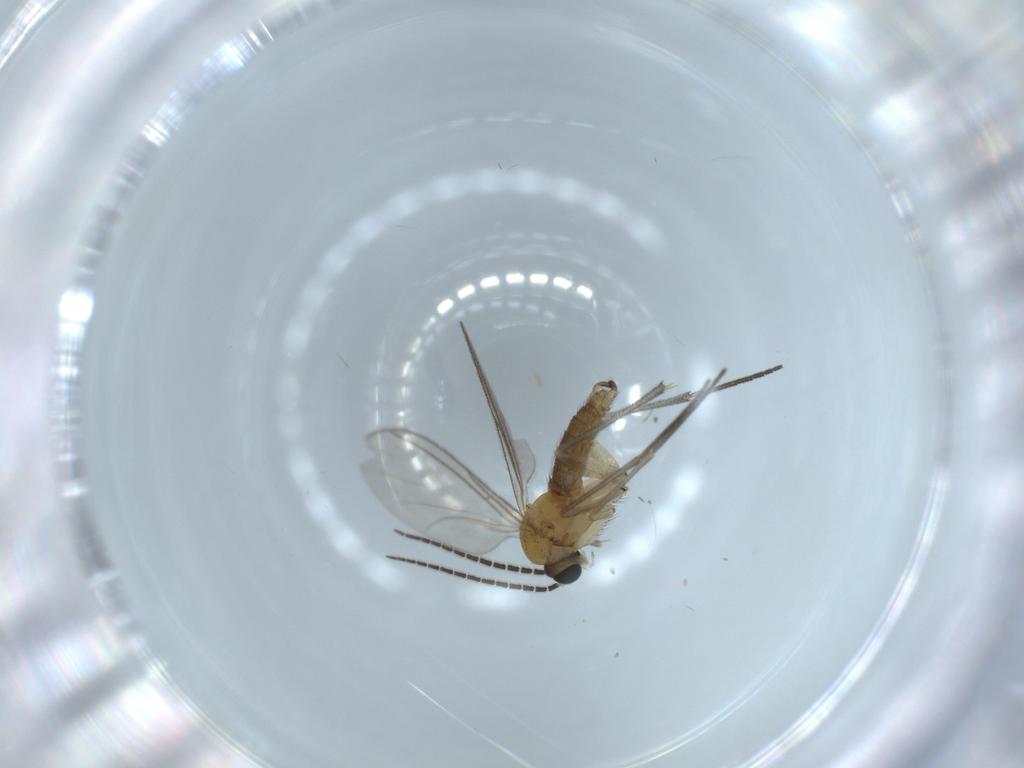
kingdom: Animalia
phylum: Arthropoda
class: Insecta
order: Diptera
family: Sciaridae
